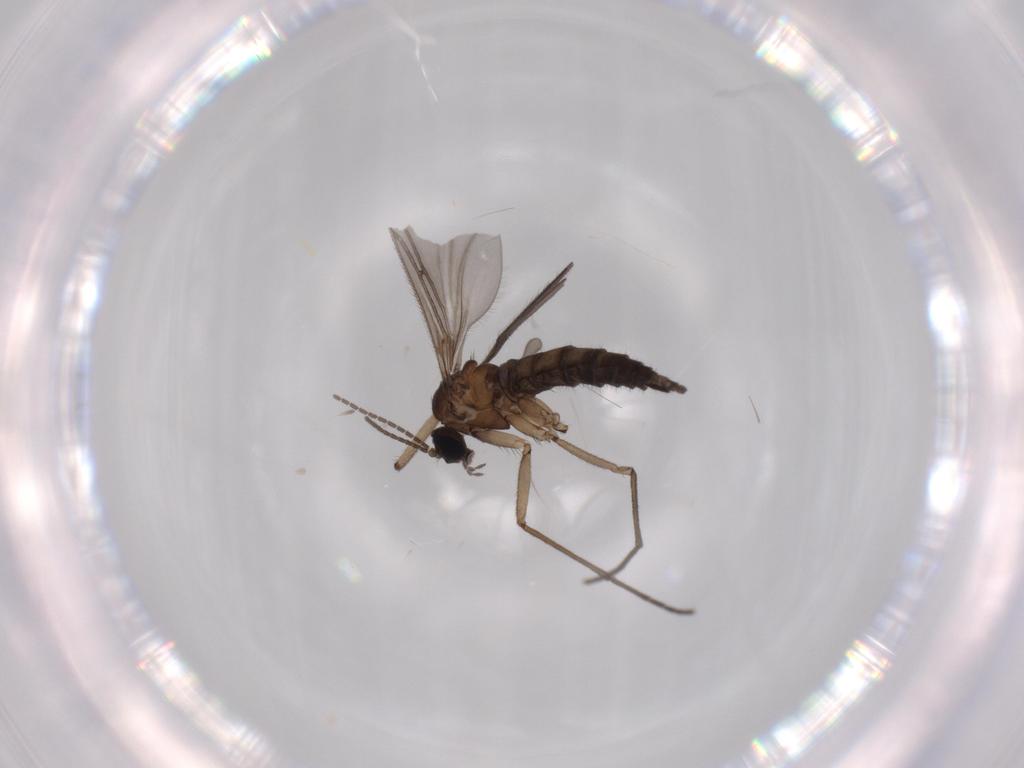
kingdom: Animalia
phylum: Arthropoda
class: Insecta
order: Diptera
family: Sciaridae
